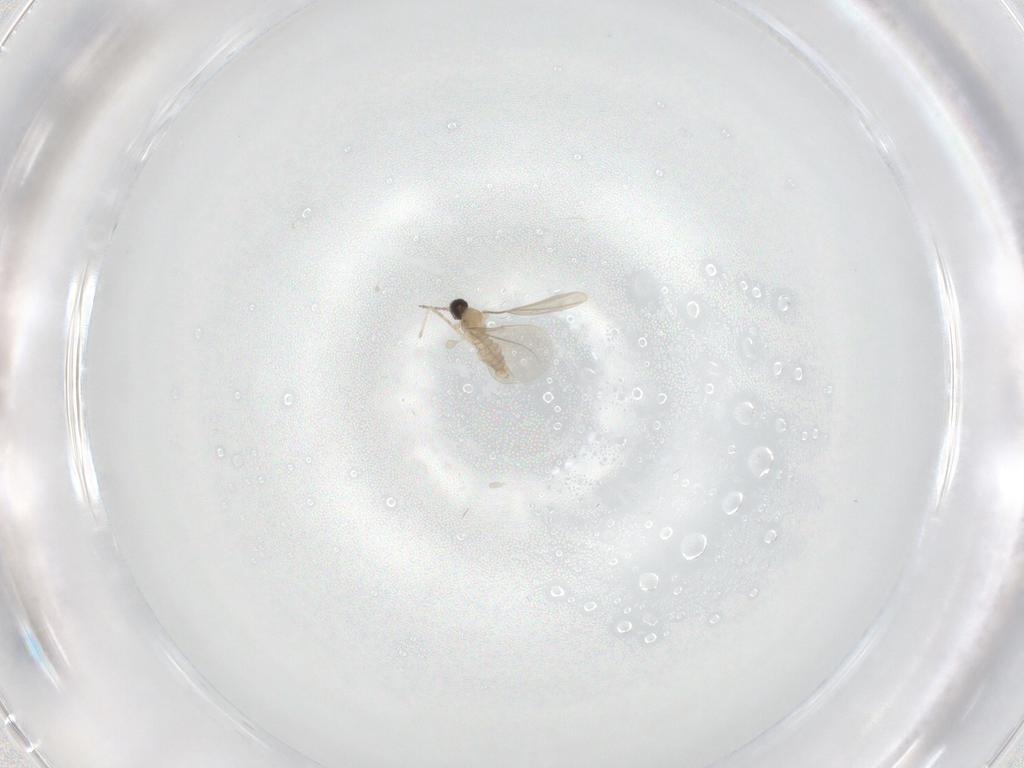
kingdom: Animalia
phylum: Arthropoda
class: Insecta
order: Diptera
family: Cecidomyiidae
